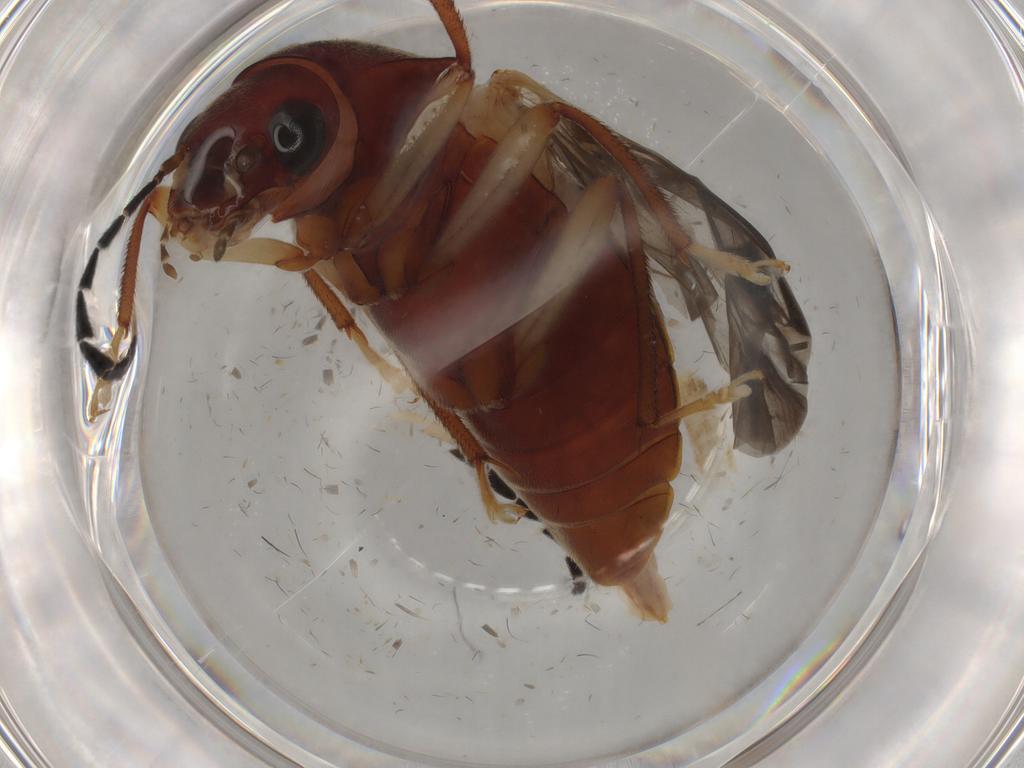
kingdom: Animalia
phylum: Arthropoda
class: Insecta
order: Coleoptera
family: Ptilodactylidae
